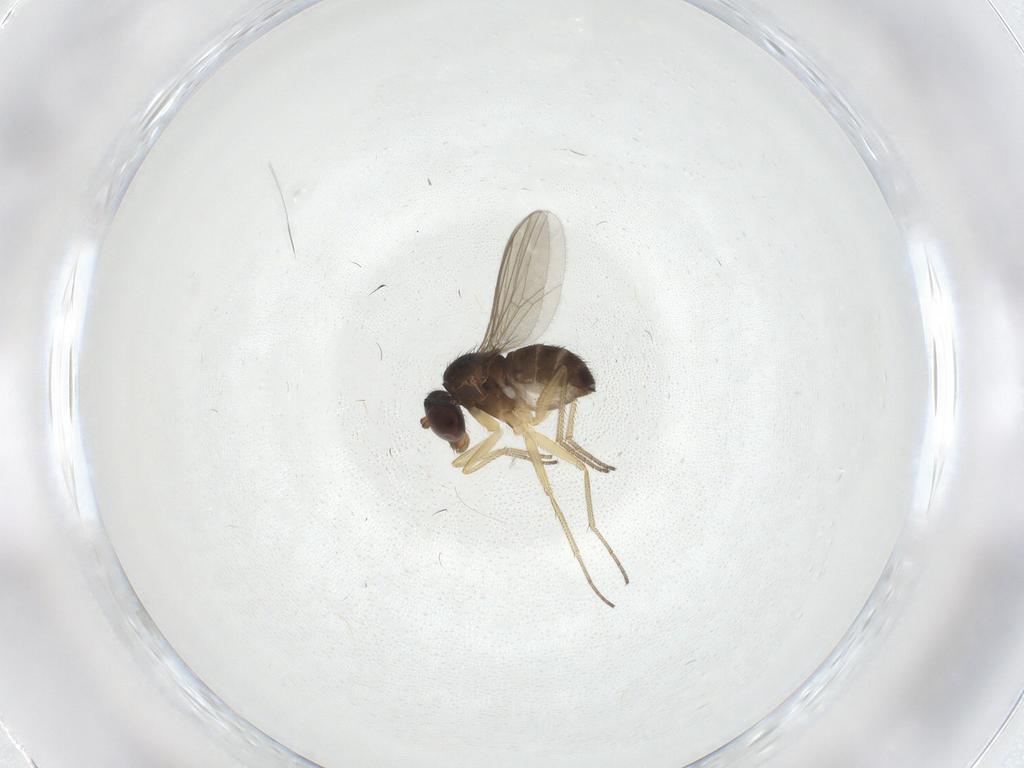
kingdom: Animalia
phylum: Arthropoda
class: Insecta
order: Diptera
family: Dolichopodidae
